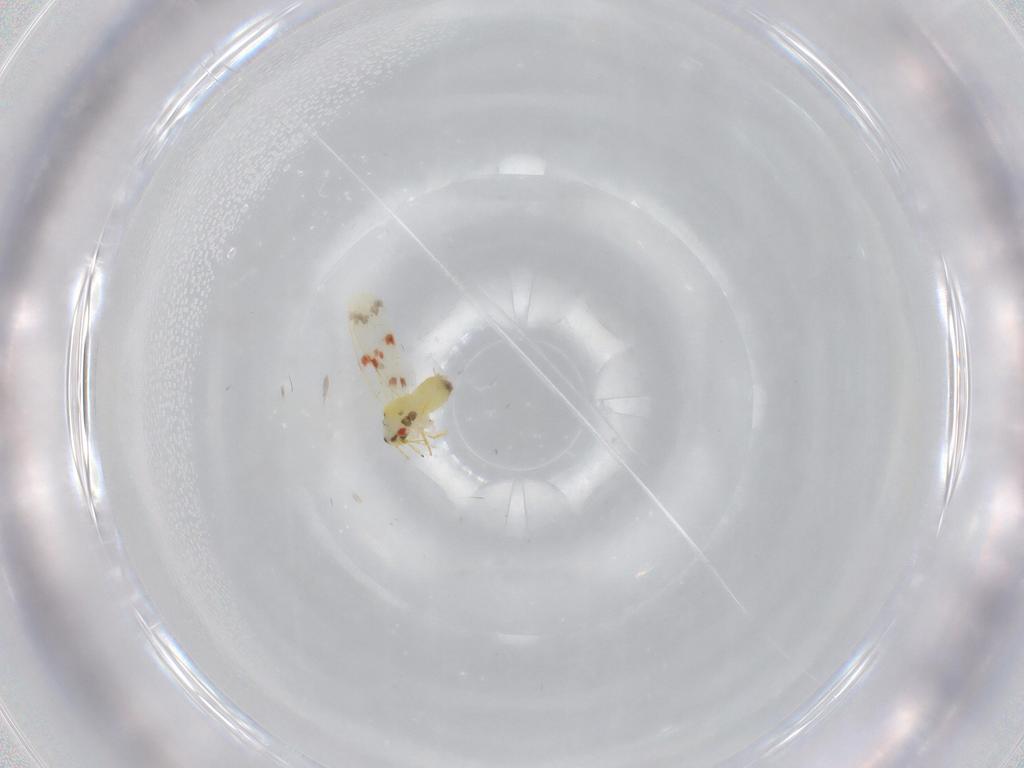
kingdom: Animalia
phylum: Arthropoda
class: Insecta
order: Hemiptera
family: Aleyrodidae
